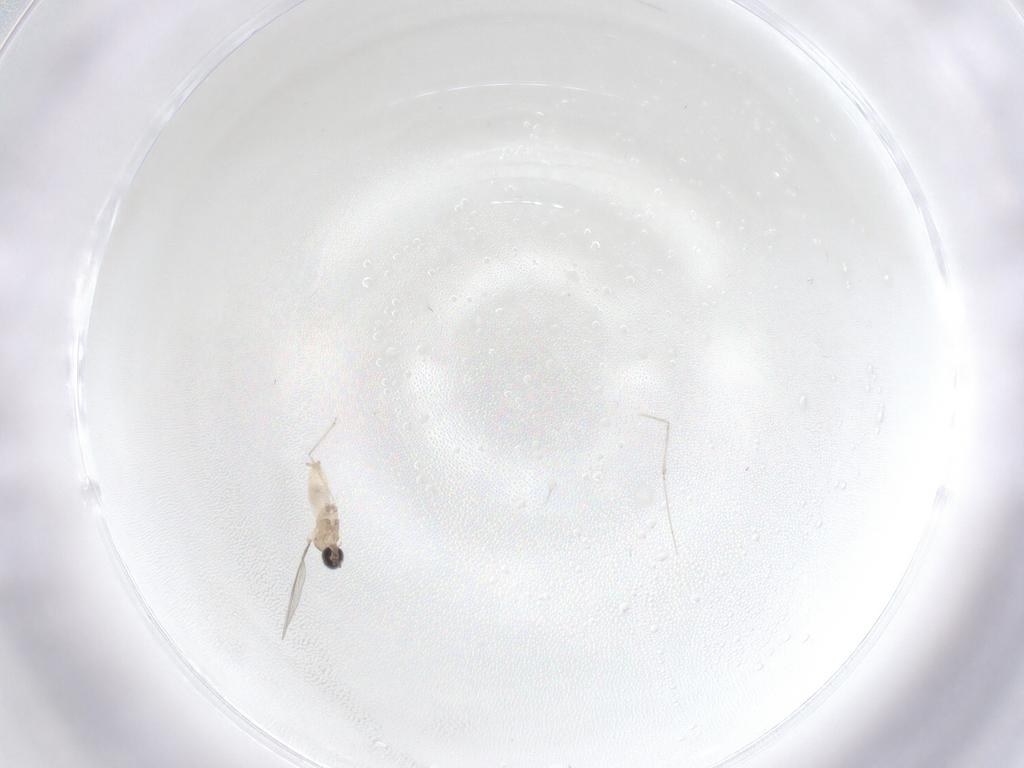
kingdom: Animalia
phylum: Arthropoda
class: Insecta
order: Diptera
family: Cecidomyiidae
